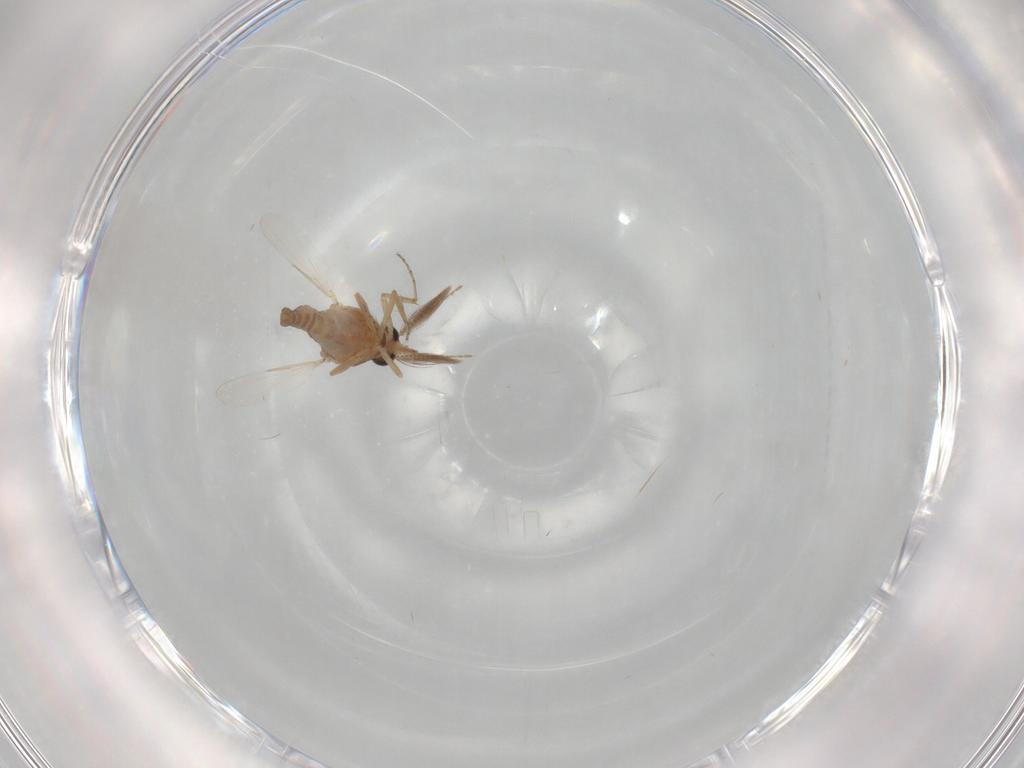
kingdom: Animalia
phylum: Arthropoda
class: Insecta
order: Diptera
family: Ceratopogonidae
